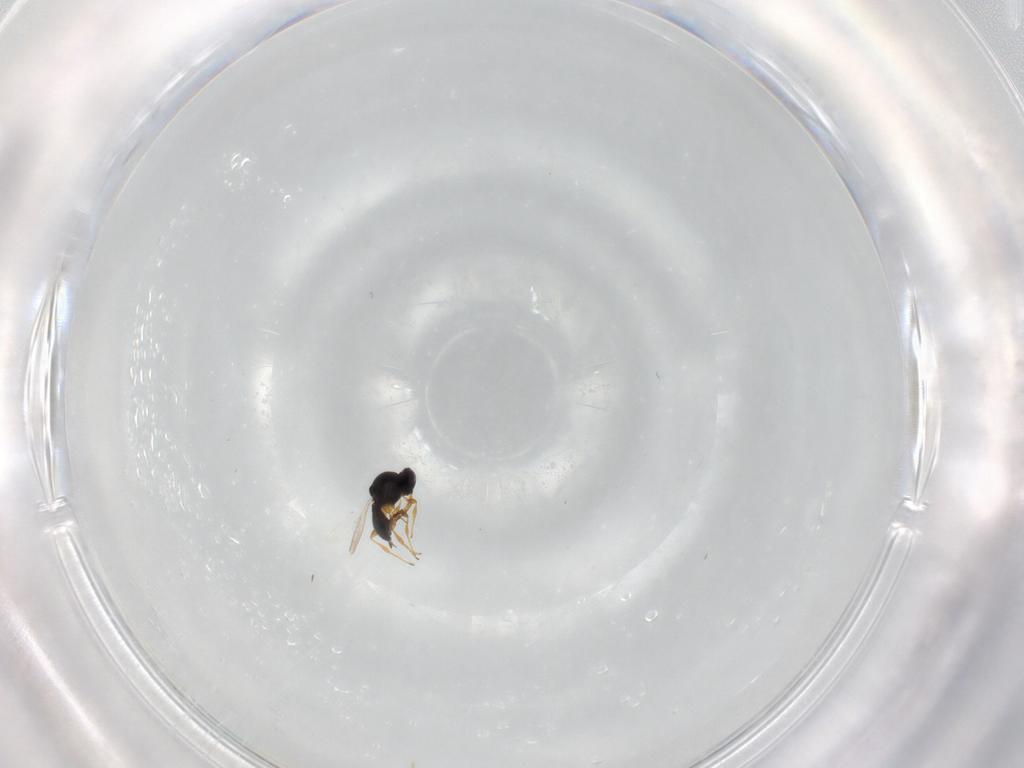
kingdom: Animalia
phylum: Arthropoda
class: Insecta
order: Hymenoptera
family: Platygastridae
